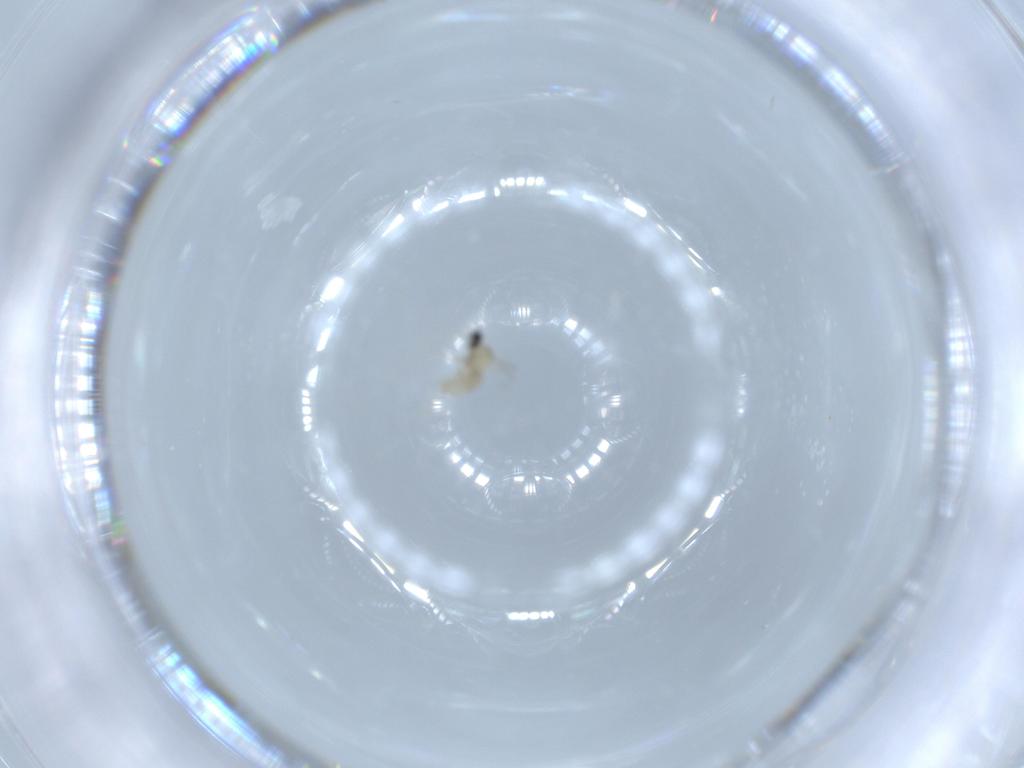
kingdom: Animalia
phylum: Arthropoda
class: Insecta
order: Diptera
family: Cecidomyiidae
